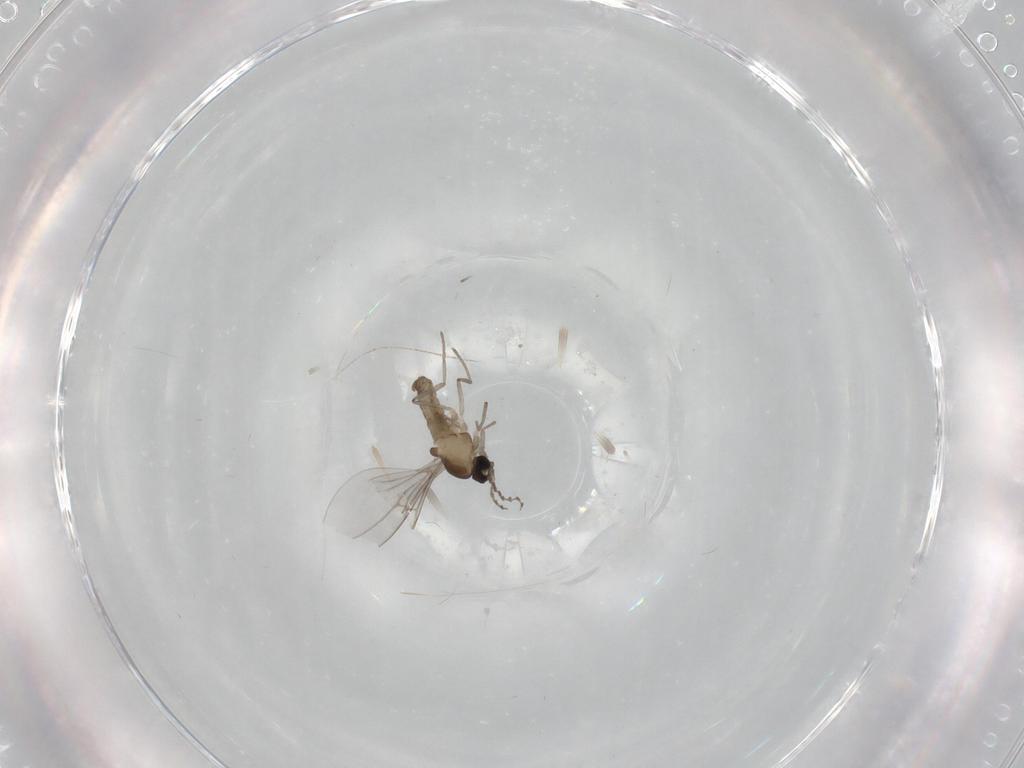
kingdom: Animalia
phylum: Arthropoda
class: Insecta
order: Diptera
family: Cecidomyiidae
